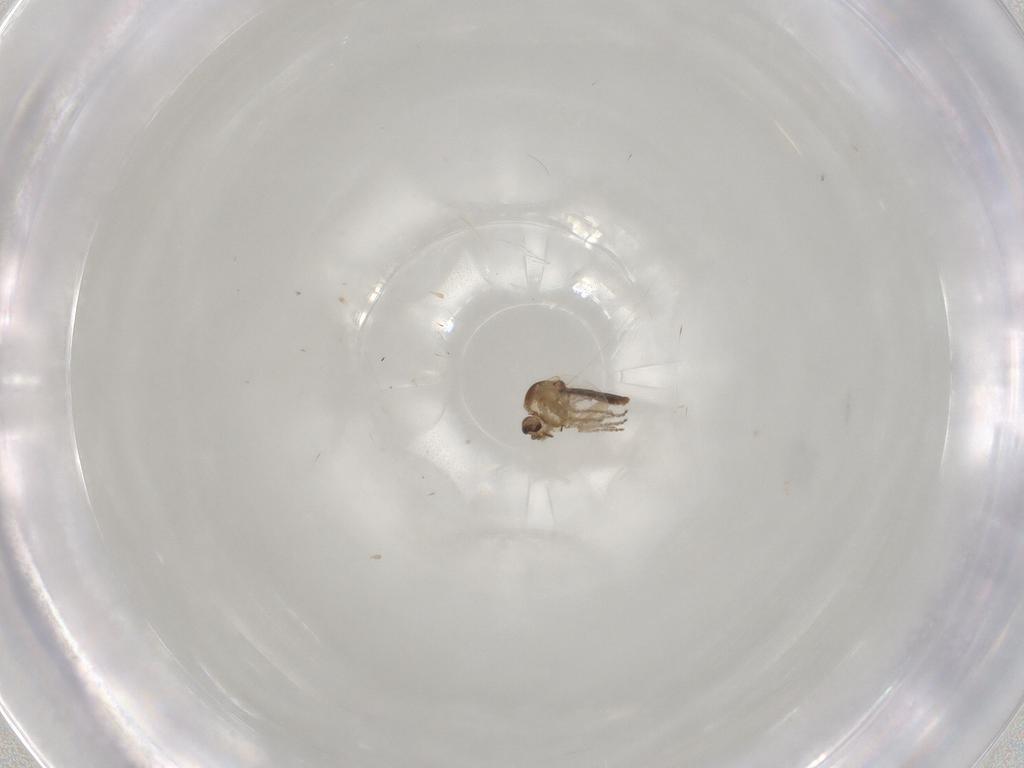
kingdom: Animalia
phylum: Arthropoda
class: Insecta
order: Diptera
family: Ceratopogonidae
